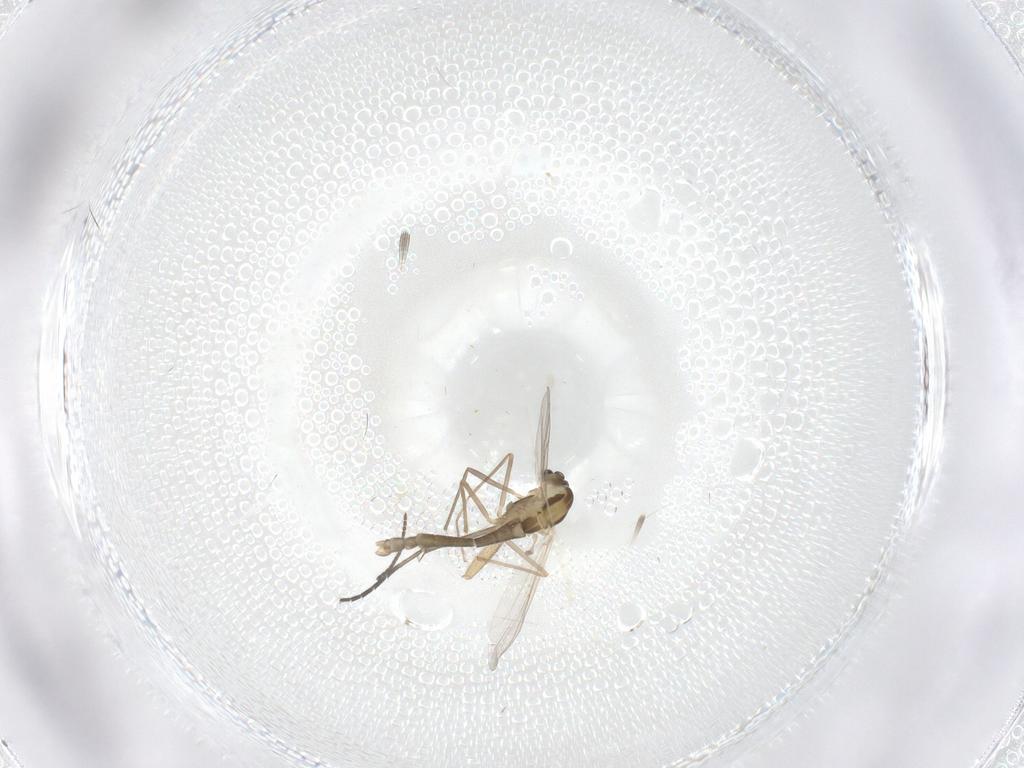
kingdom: Animalia
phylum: Arthropoda
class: Insecta
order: Diptera
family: Chironomidae
